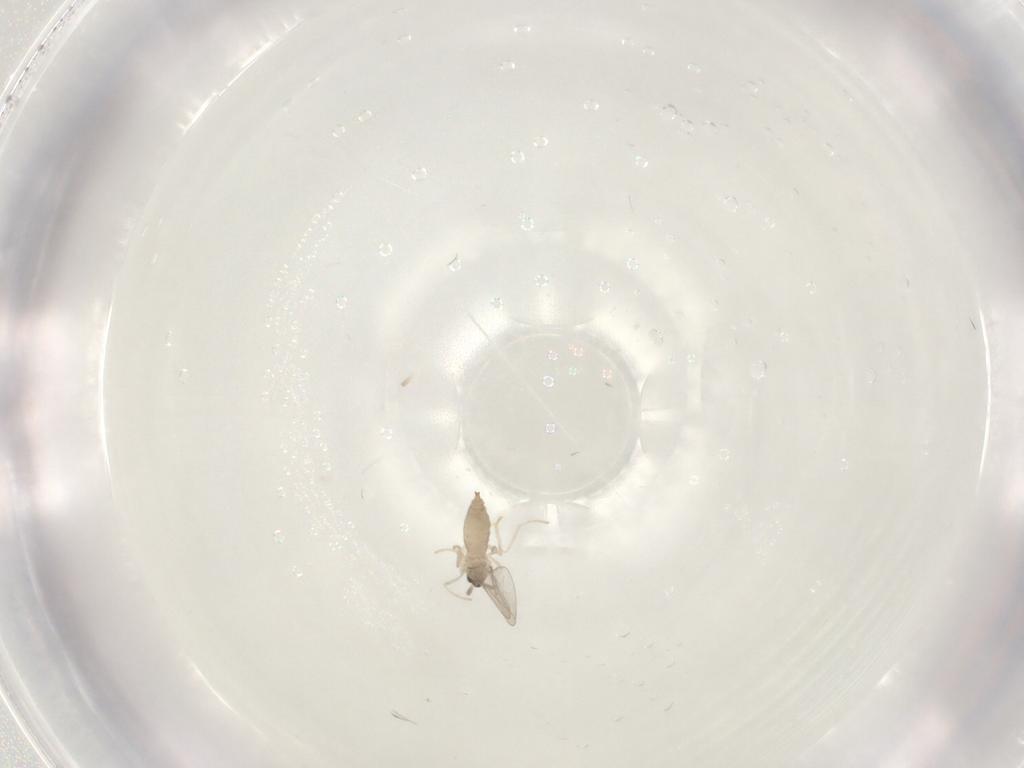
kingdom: Animalia
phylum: Arthropoda
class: Insecta
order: Diptera
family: Cecidomyiidae
